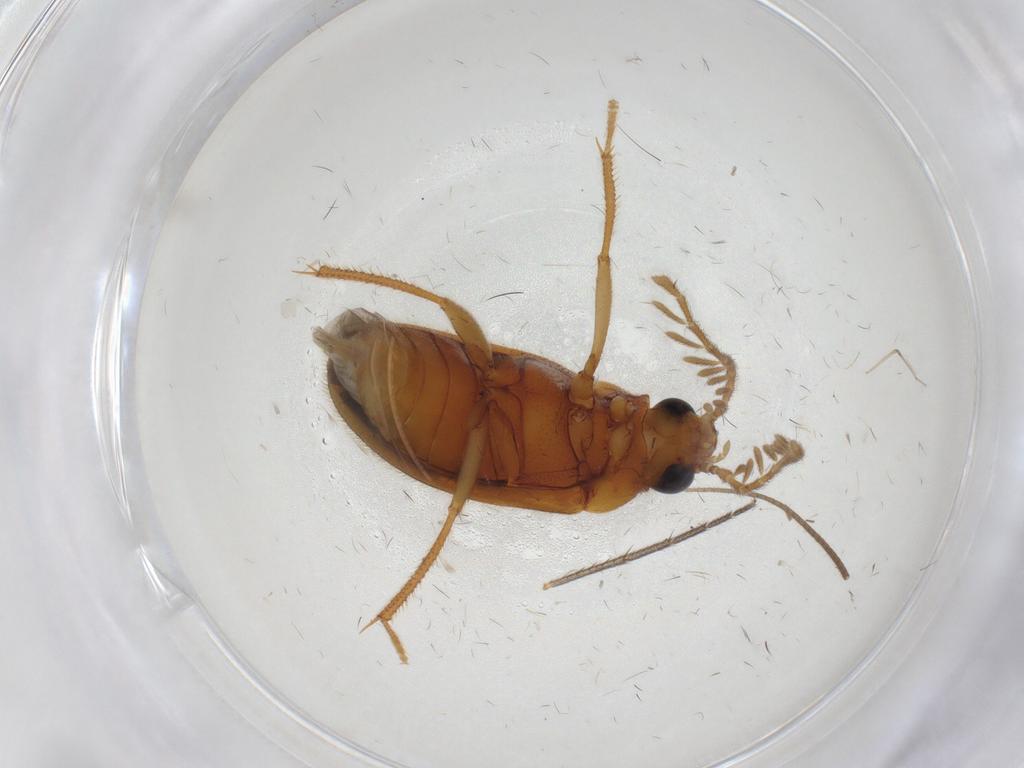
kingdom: Animalia
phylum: Arthropoda
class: Insecta
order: Coleoptera
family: Ptilodactylidae
